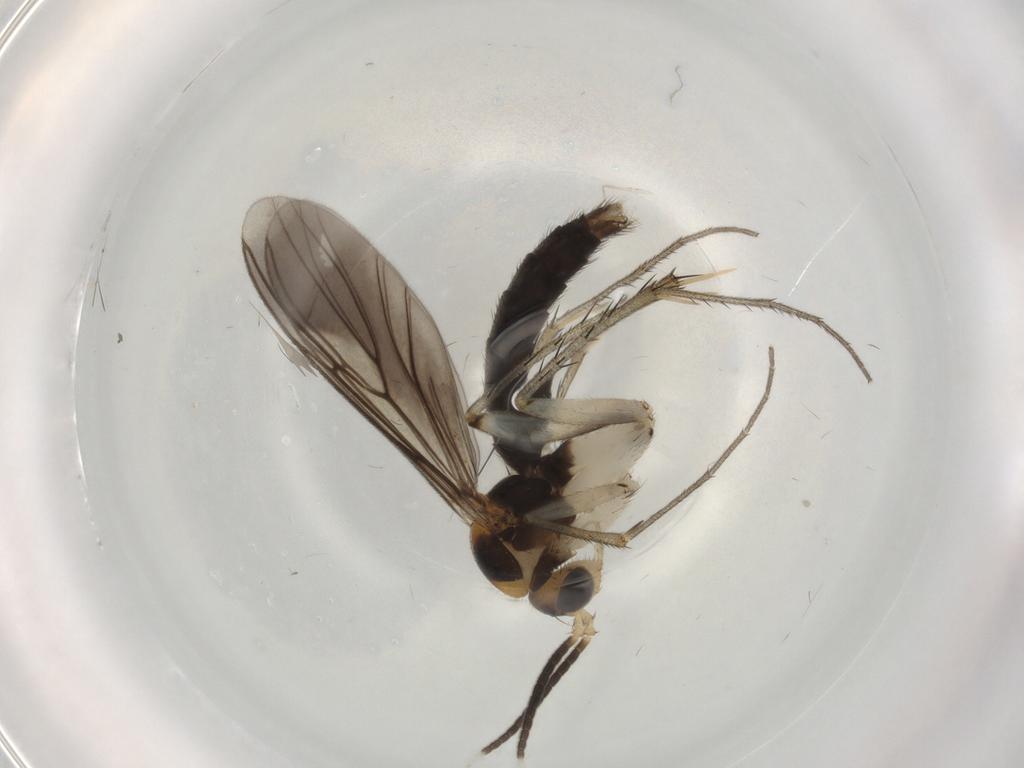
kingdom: Animalia
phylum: Arthropoda
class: Insecta
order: Diptera
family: Mycetophilidae
